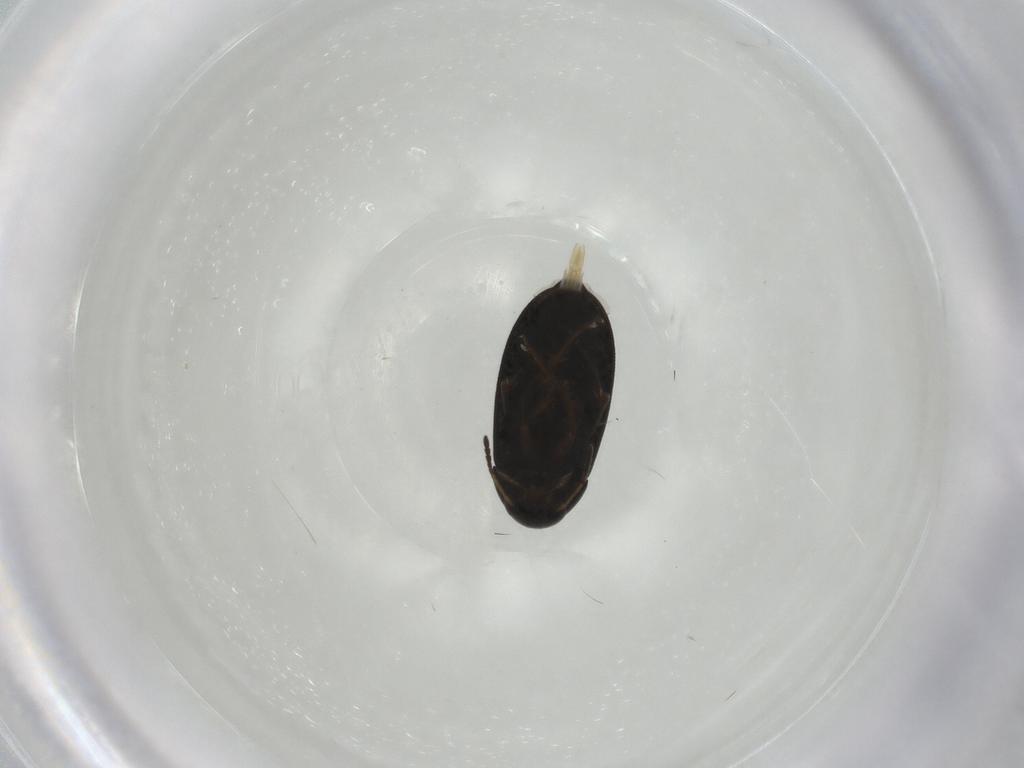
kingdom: Animalia
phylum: Arthropoda
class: Insecta
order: Coleoptera
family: Scraptiidae
